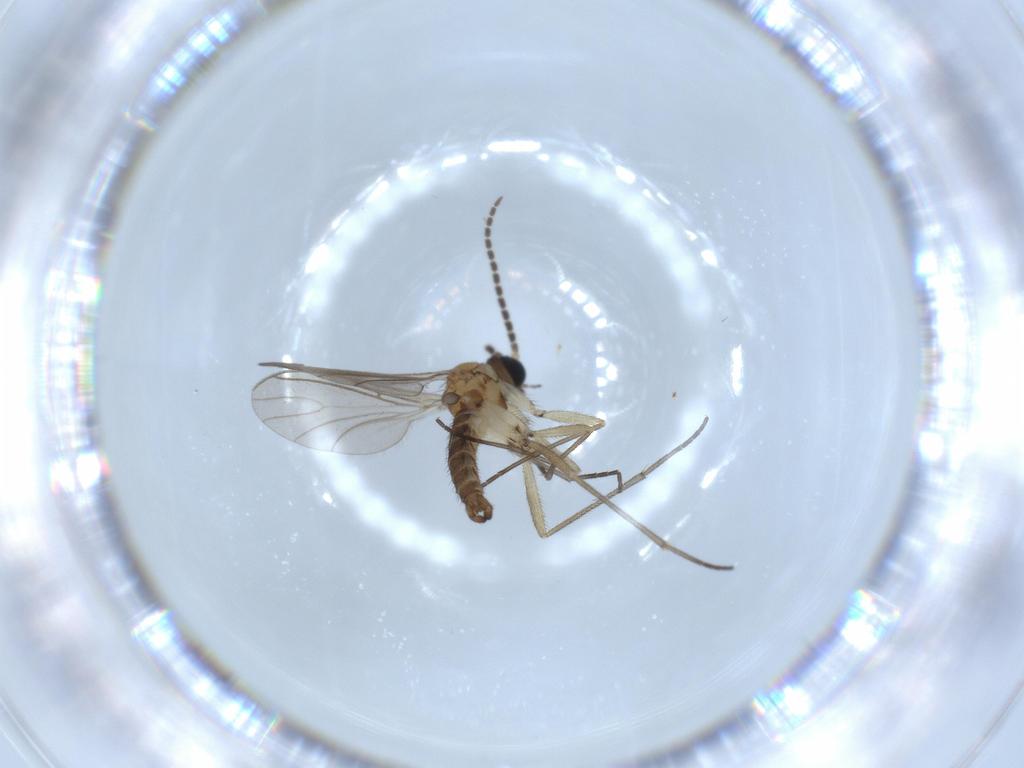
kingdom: Animalia
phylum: Arthropoda
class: Insecta
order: Diptera
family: Sciaridae
